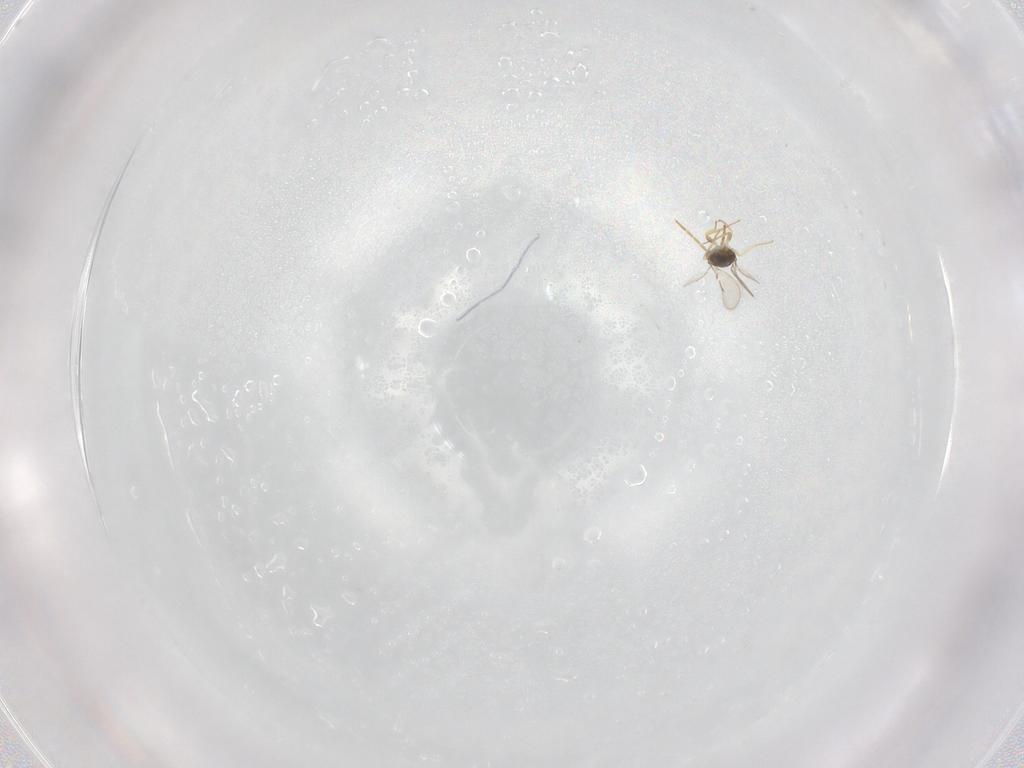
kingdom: Animalia
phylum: Arthropoda
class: Insecta
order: Hymenoptera
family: Aphelinidae
